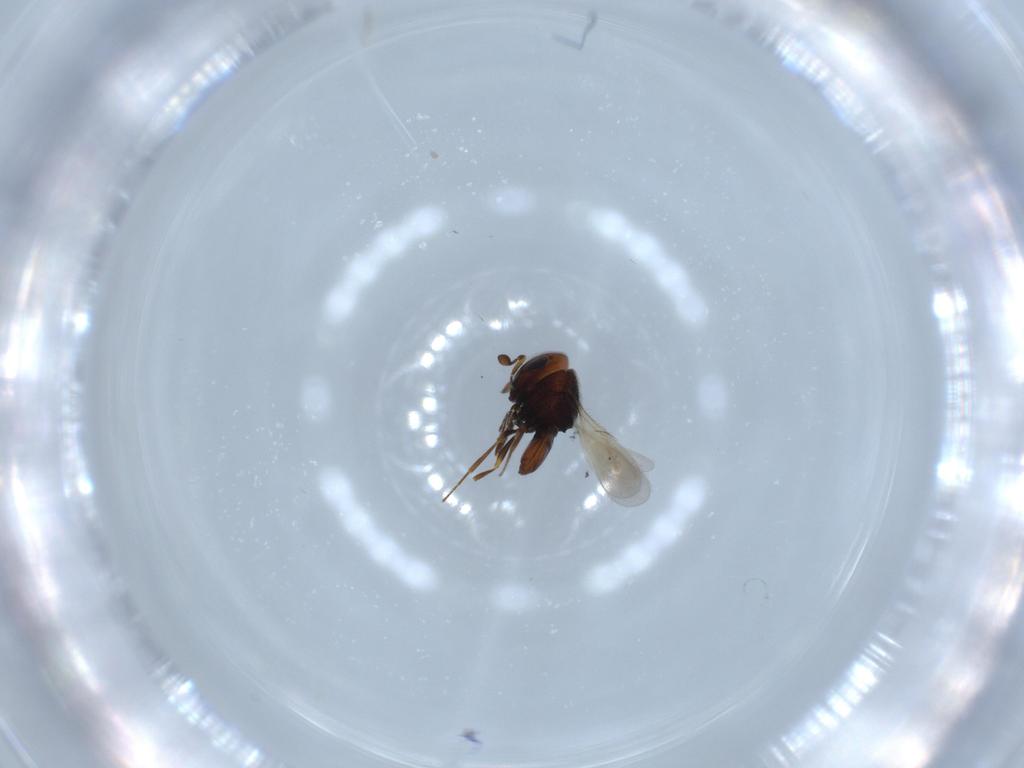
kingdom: Animalia
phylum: Arthropoda
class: Insecta
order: Hymenoptera
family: Scelionidae
